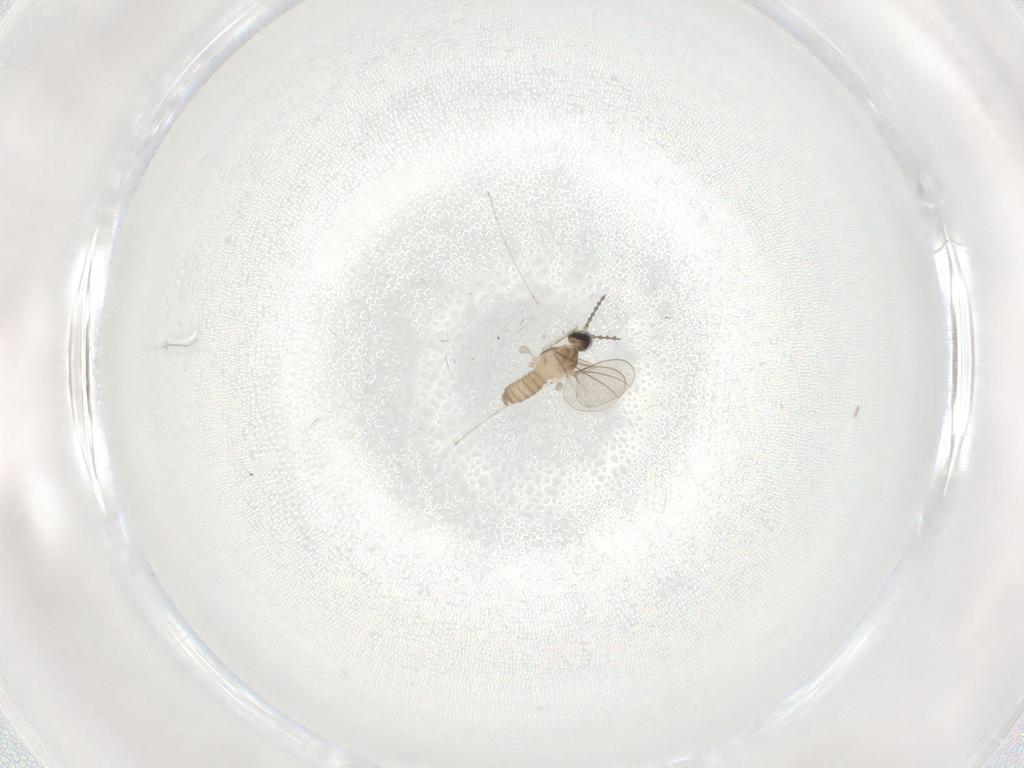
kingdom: Animalia
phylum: Arthropoda
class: Insecta
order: Diptera
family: Cecidomyiidae
